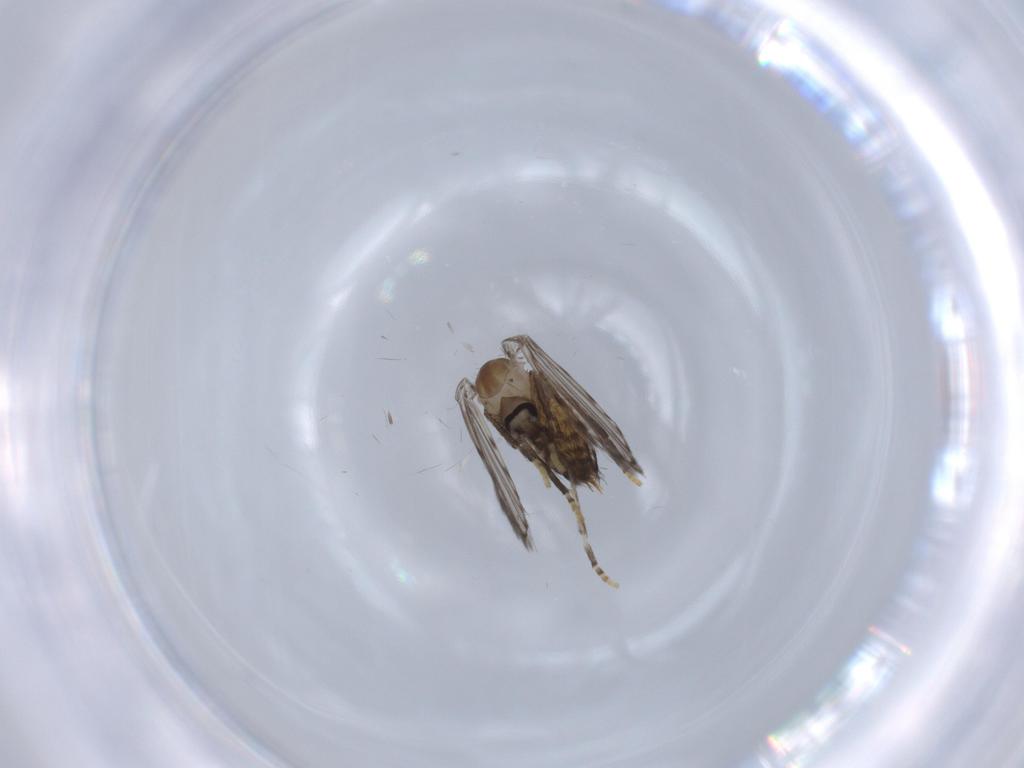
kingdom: Animalia
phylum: Arthropoda
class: Insecta
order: Diptera
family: Psychodidae
